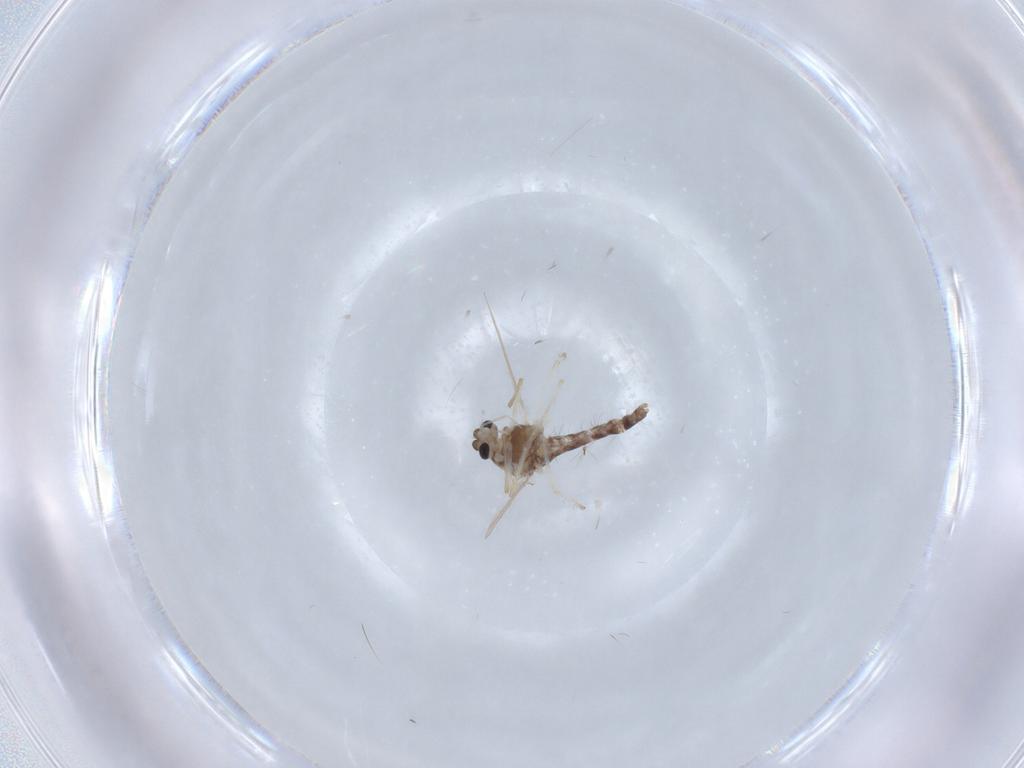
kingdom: Animalia
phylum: Arthropoda
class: Insecta
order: Diptera
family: Chironomidae
